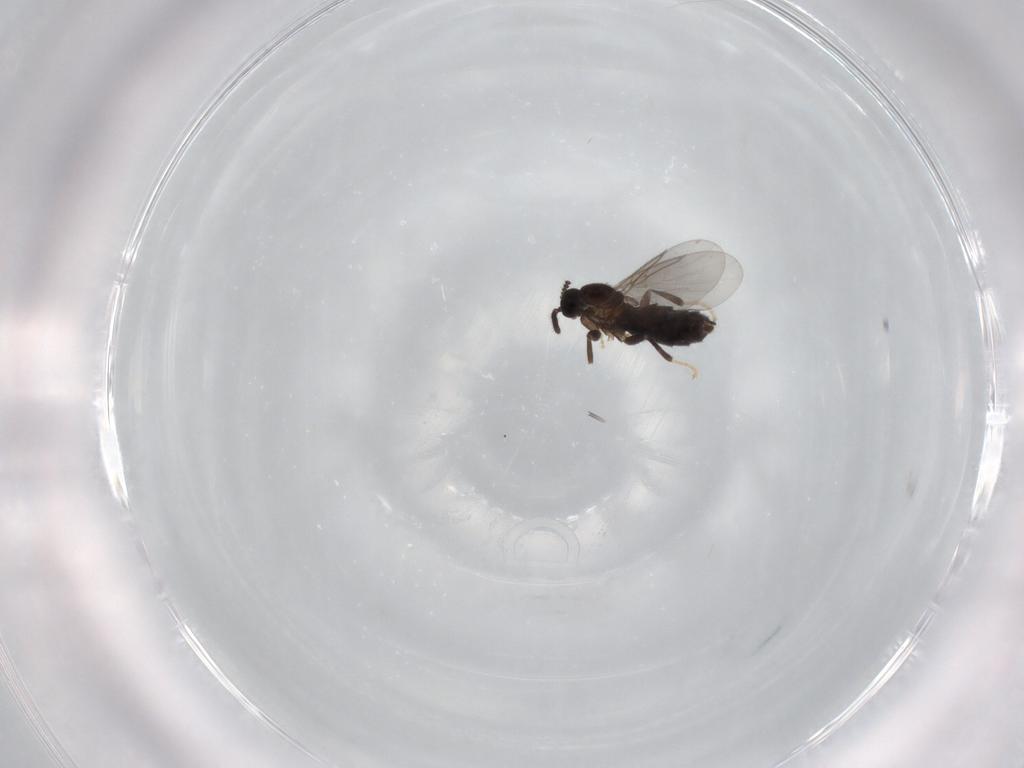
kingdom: Animalia
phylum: Arthropoda
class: Insecta
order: Diptera
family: Scatopsidae
